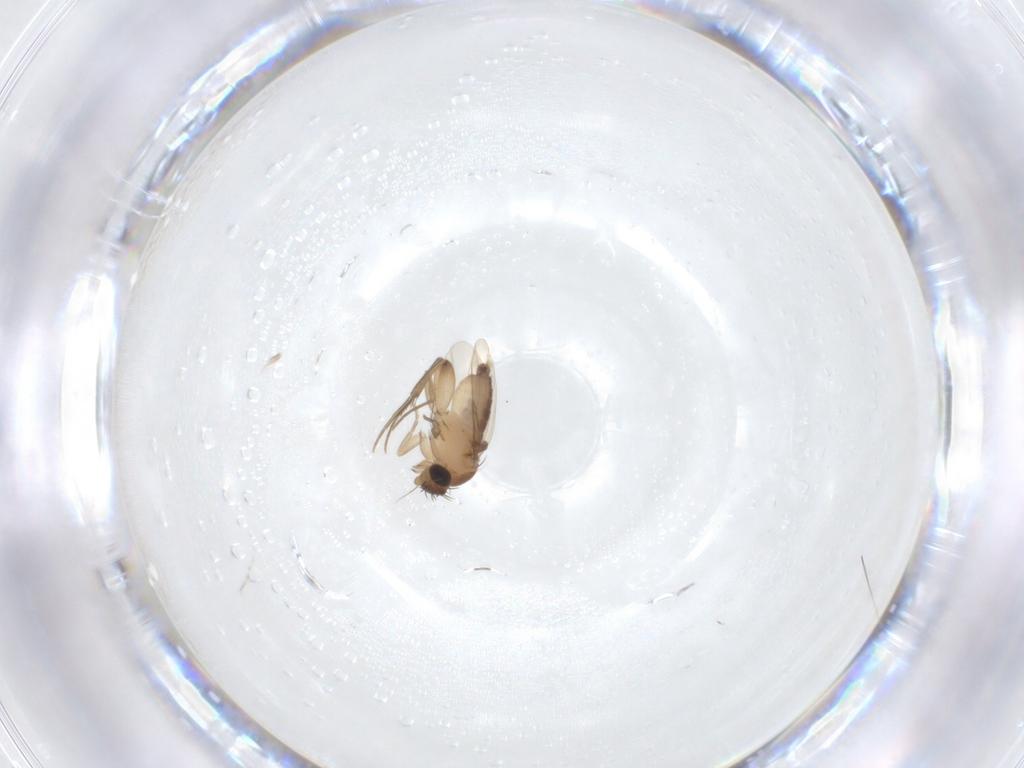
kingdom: Animalia
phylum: Arthropoda
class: Insecta
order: Diptera
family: Phoridae
